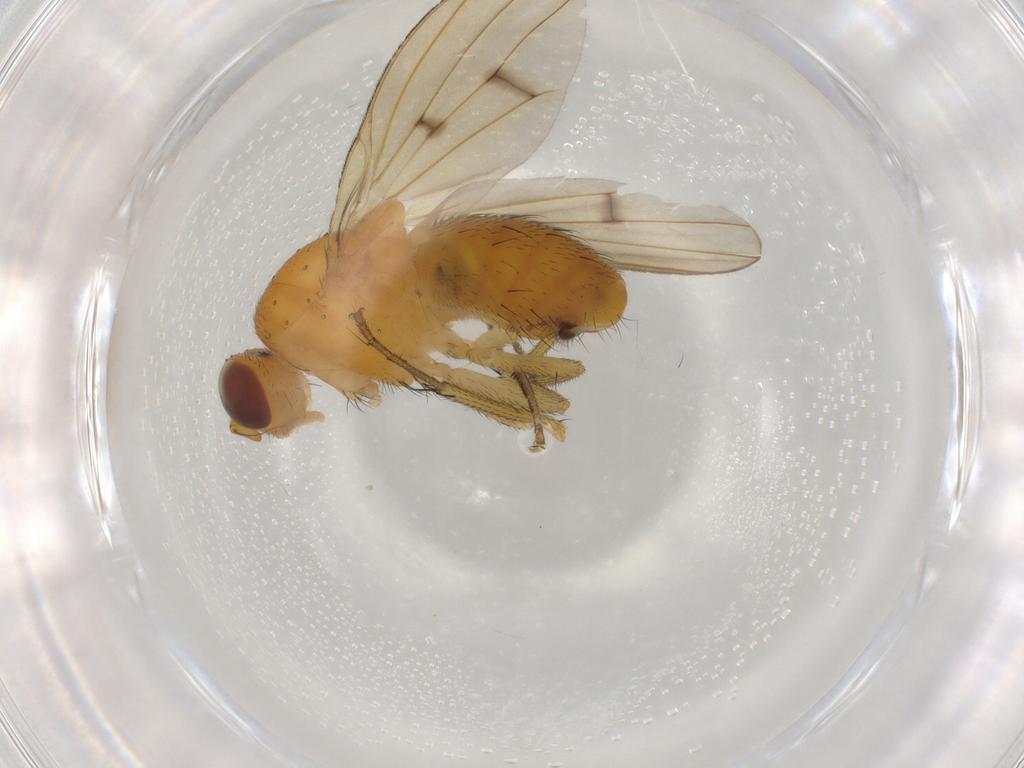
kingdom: Animalia
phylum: Arthropoda
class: Insecta
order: Diptera
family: Lauxaniidae
